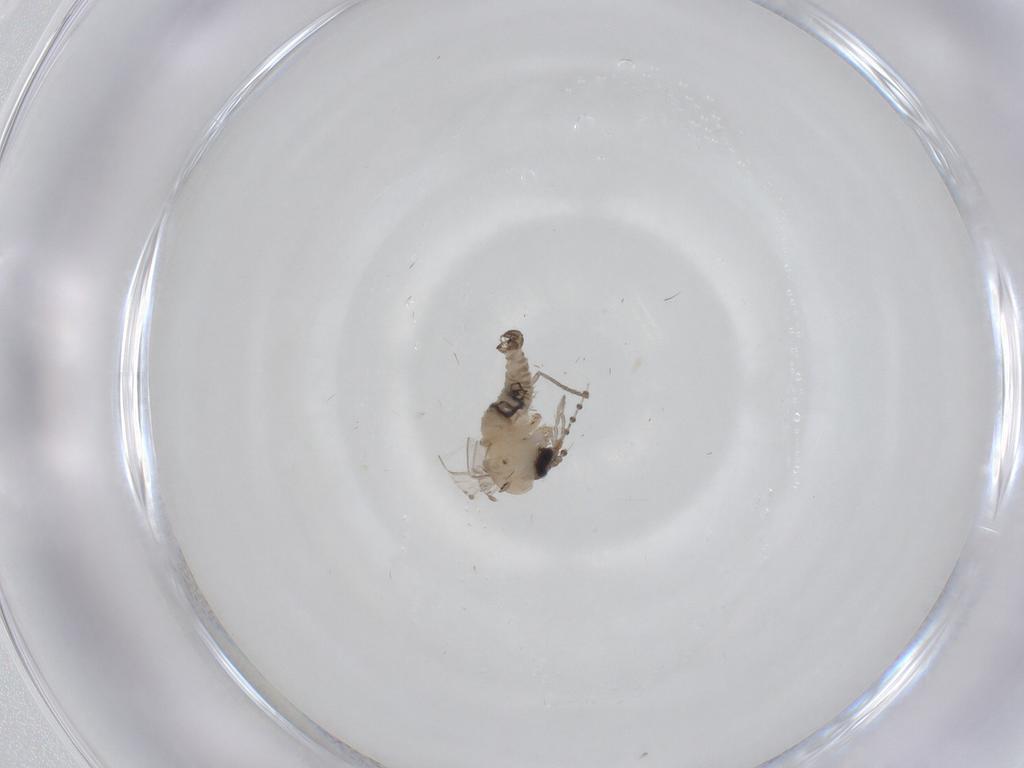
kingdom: Animalia
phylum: Arthropoda
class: Insecta
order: Diptera
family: Psychodidae
